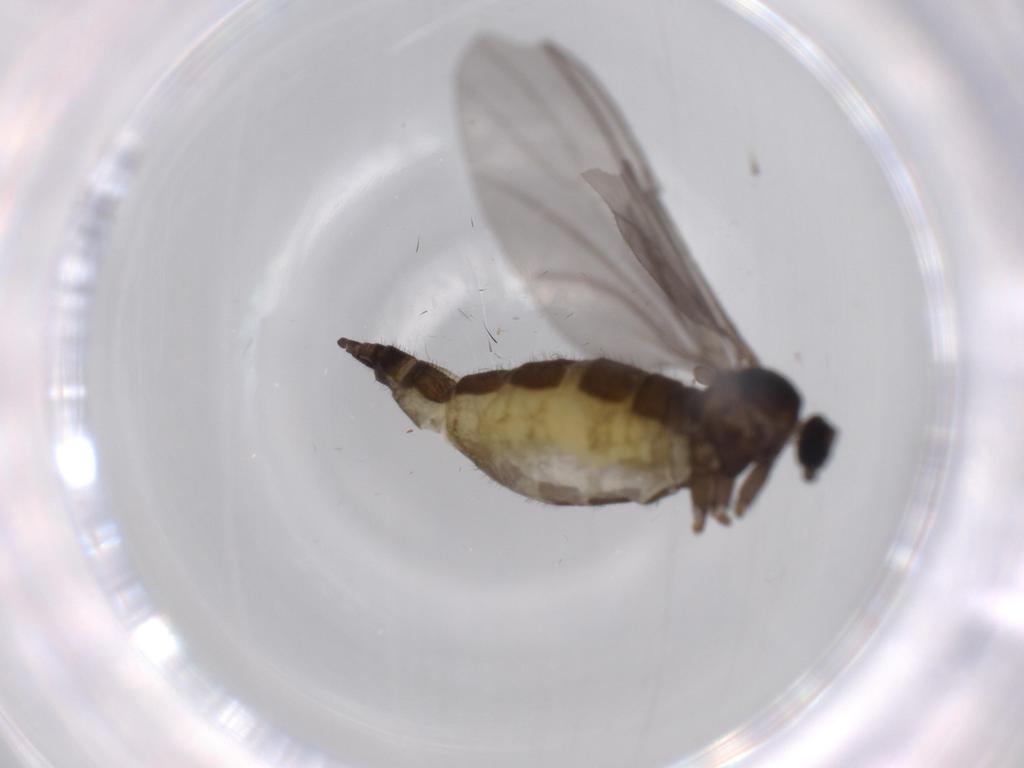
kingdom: Animalia
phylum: Arthropoda
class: Insecta
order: Diptera
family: Sciaridae
